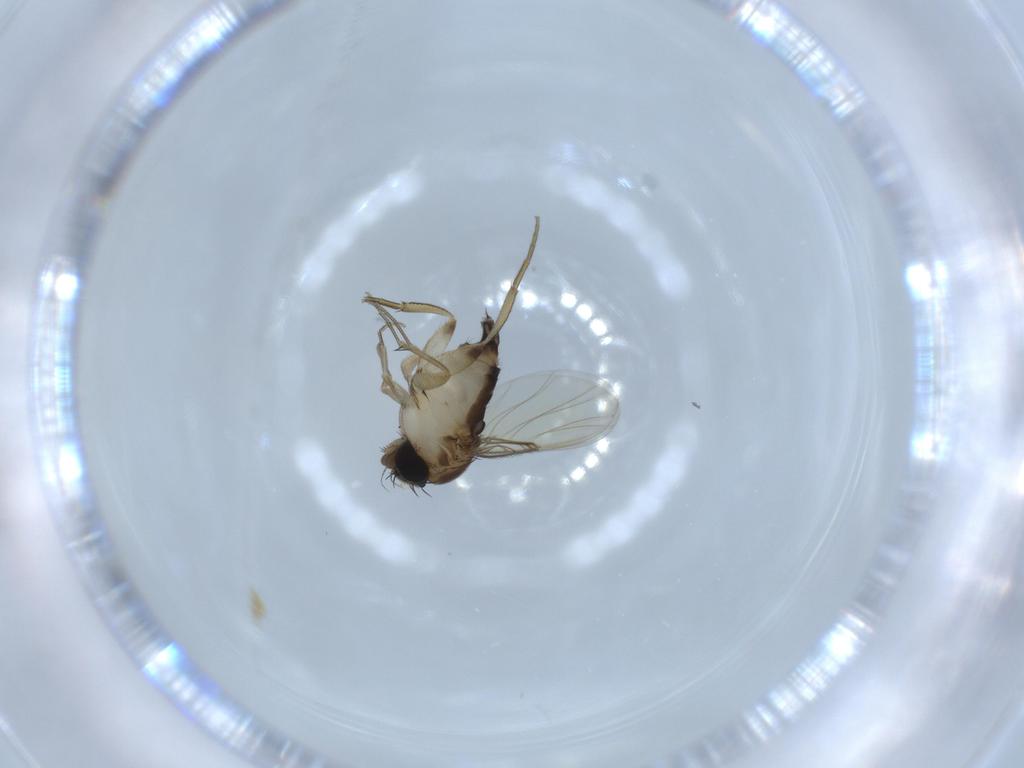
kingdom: Animalia
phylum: Arthropoda
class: Insecta
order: Diptera
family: Phoridae
